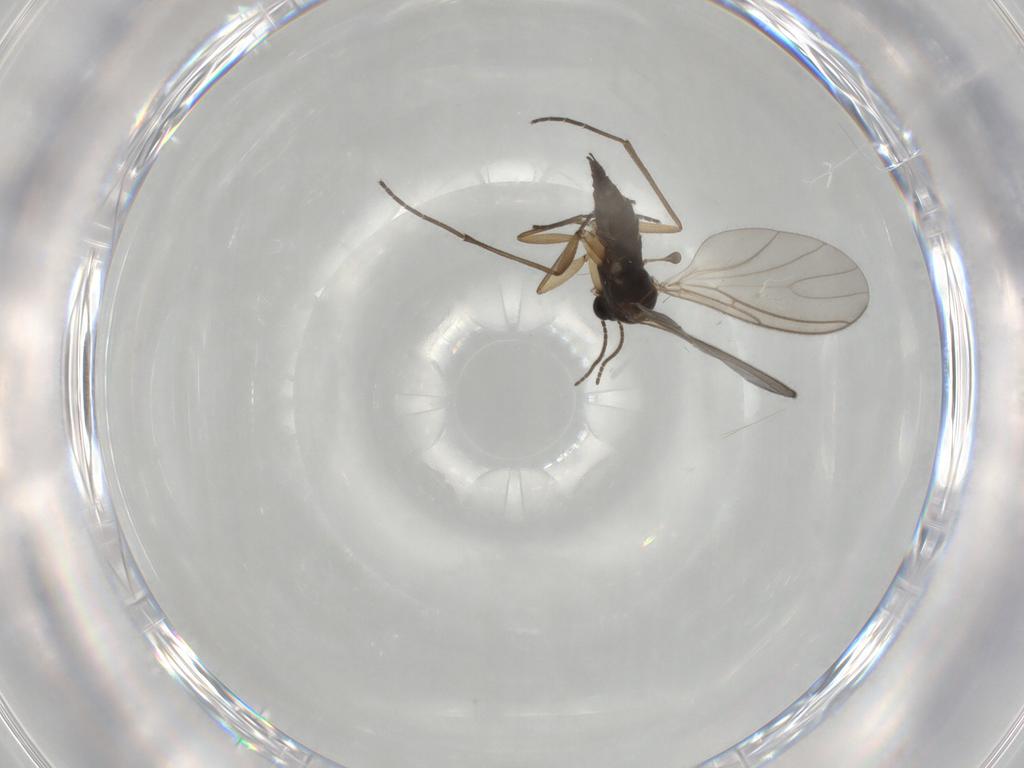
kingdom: Animalia
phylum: Arthropoda
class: Insecta
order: Diptera
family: Sciaridae
